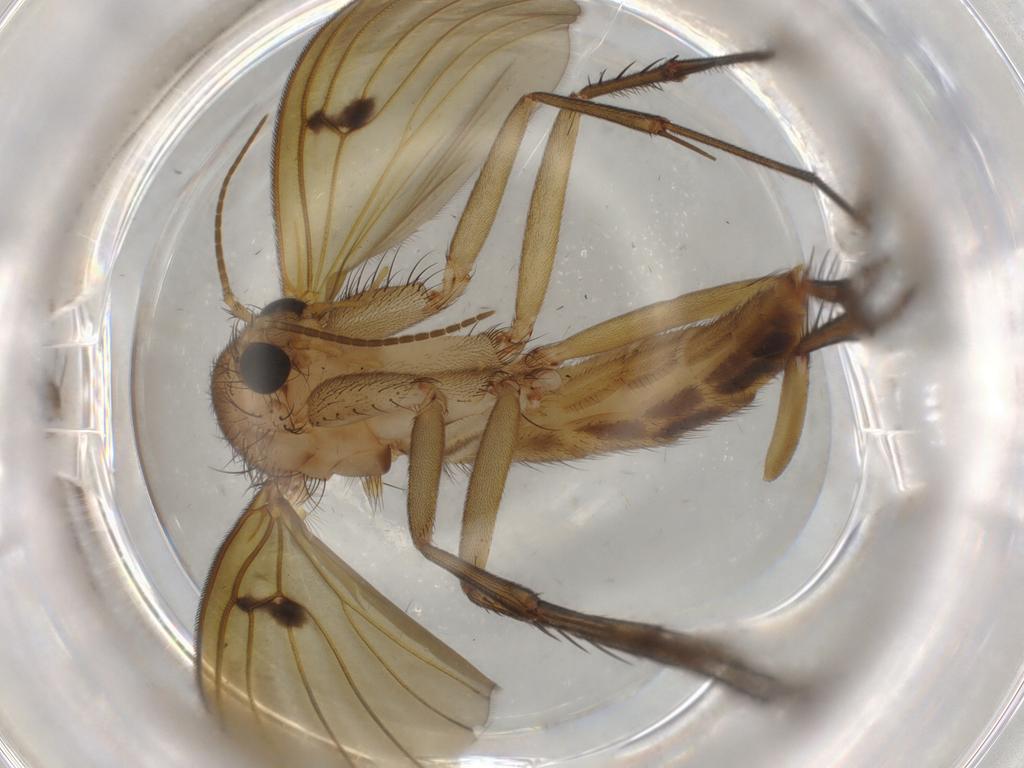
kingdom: Animalia
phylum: Arthropoda
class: Insecta
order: Diptera
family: Mycetophilidae
